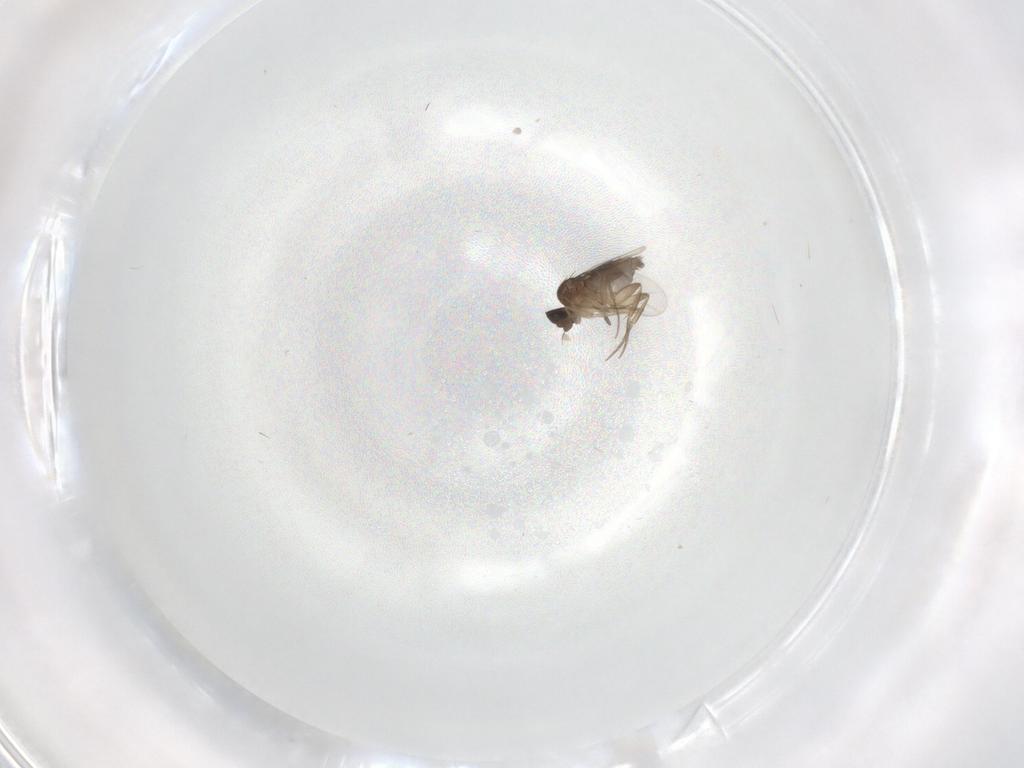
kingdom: Animalia
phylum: Arthropoda
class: Insecta
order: Diptera
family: Sciaridae
